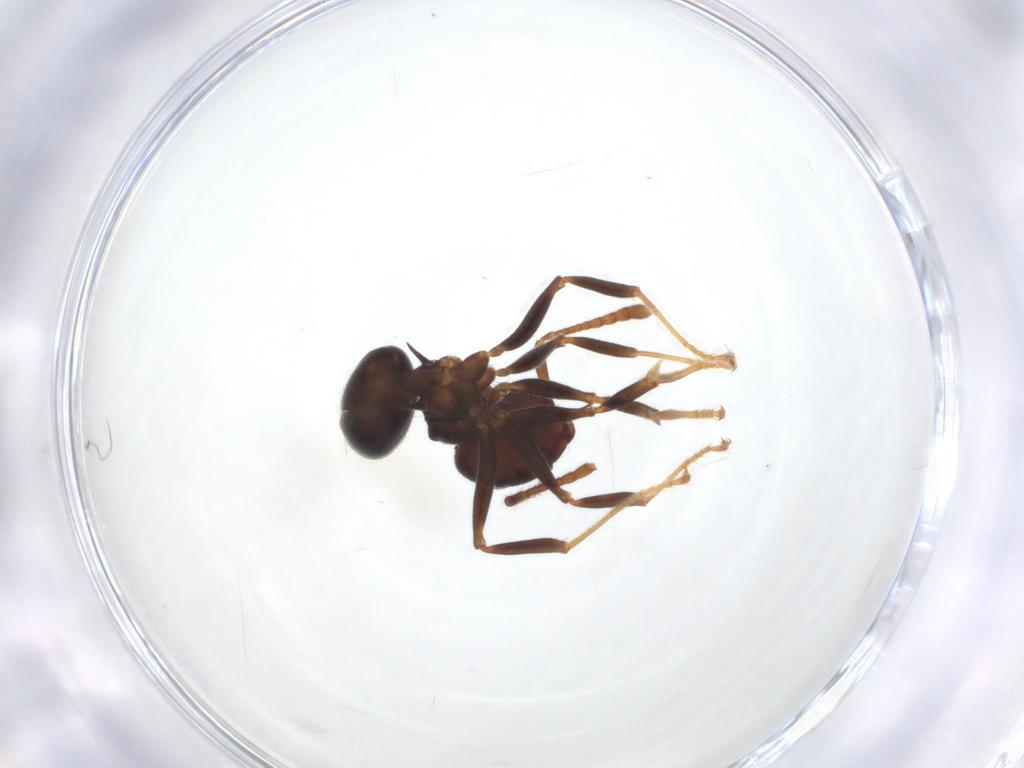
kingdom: Animalia
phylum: Arthropoda
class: Insecta
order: Hymenoptera
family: Formicidae
